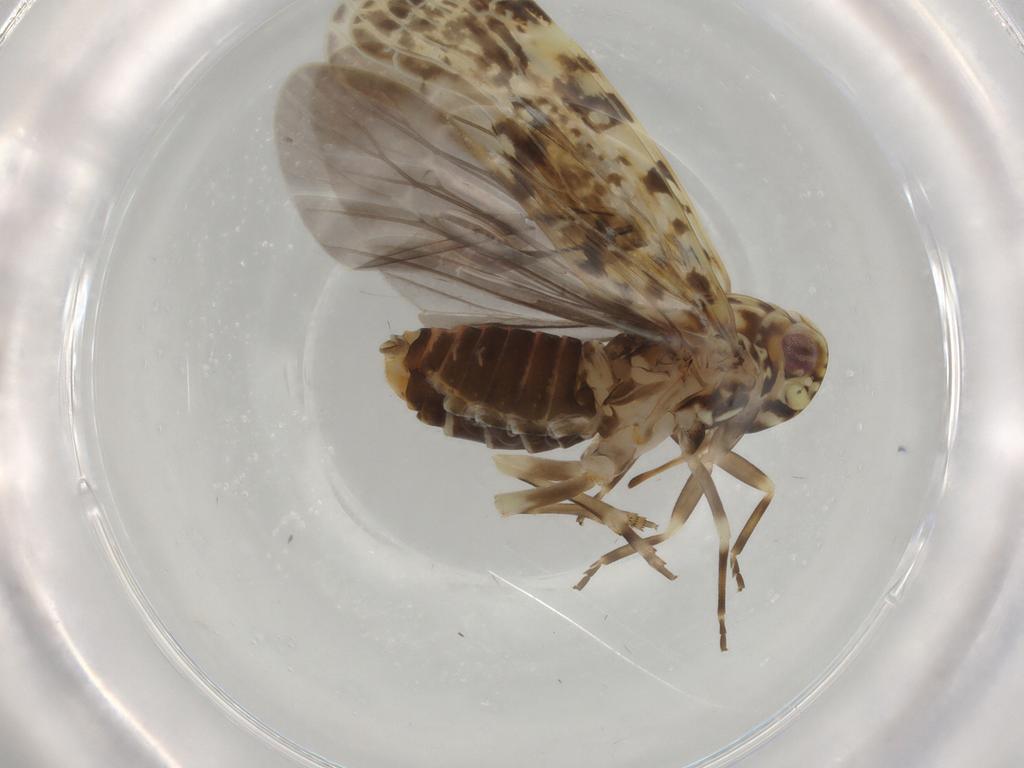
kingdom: Animalia
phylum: Arthropoda
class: Insecta
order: Hemiptera
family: Achilidae
